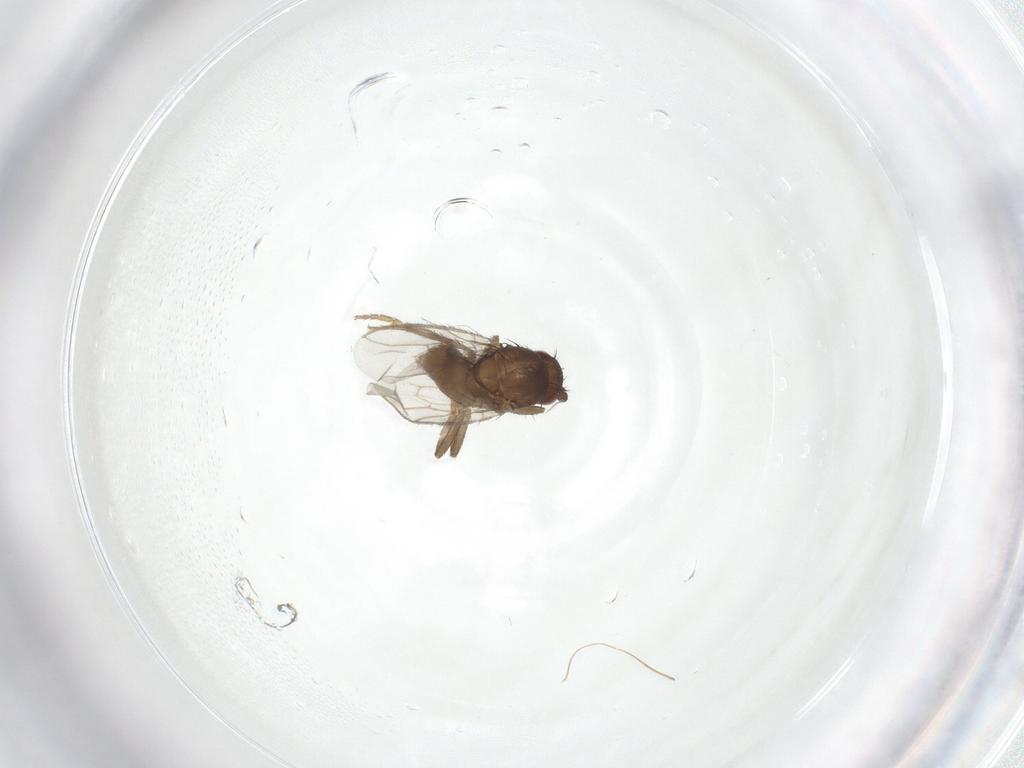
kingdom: Animalia
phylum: Arthropoda
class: Insecta
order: Diptera
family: Sphaeroceridae
